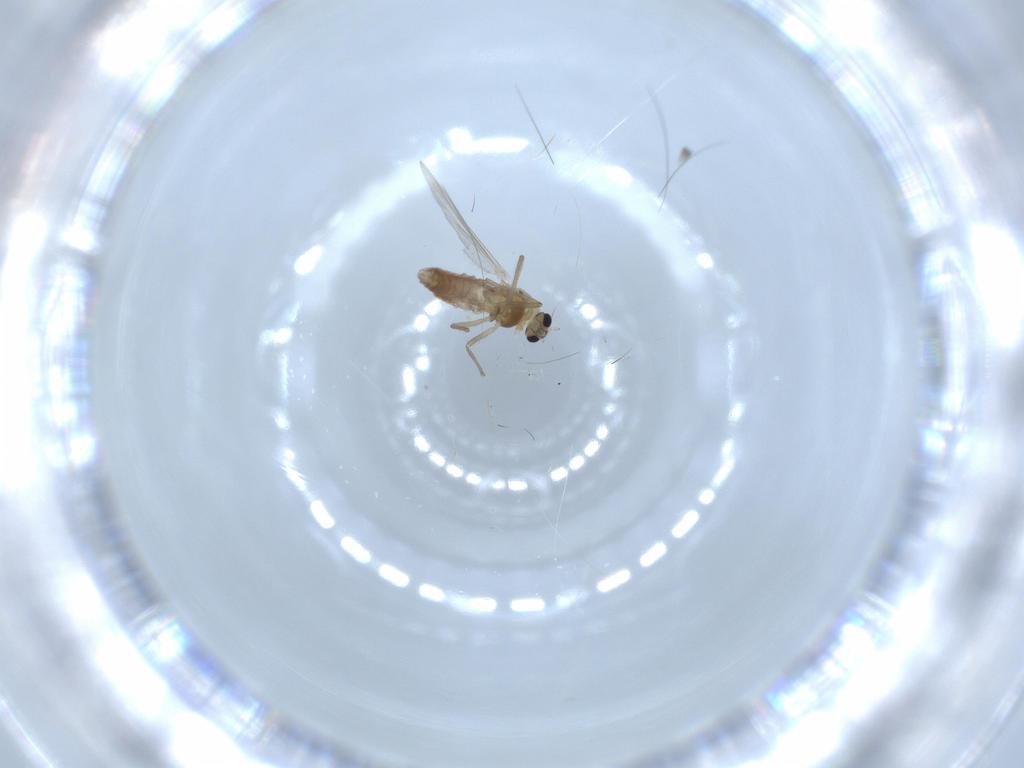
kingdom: Animalia
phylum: Arthropoda
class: Insecta
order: Diptera
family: Chironomidae
